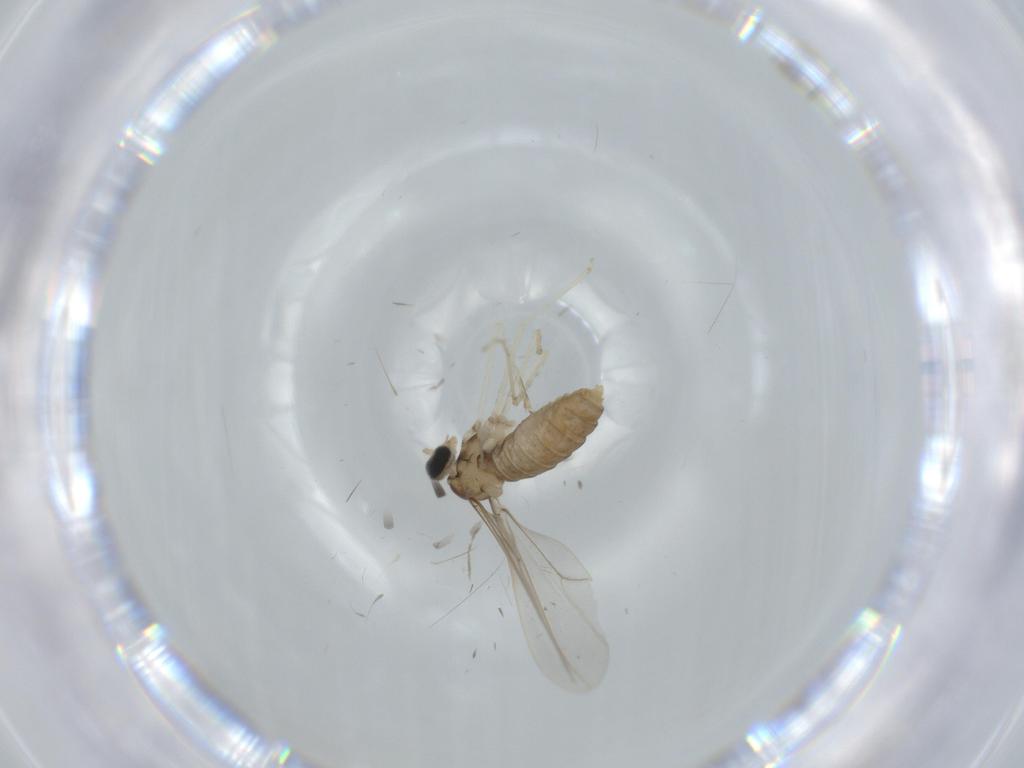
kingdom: Animalia
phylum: Arthropoda
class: Insecta
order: Diptera
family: Cecidomyiidae
